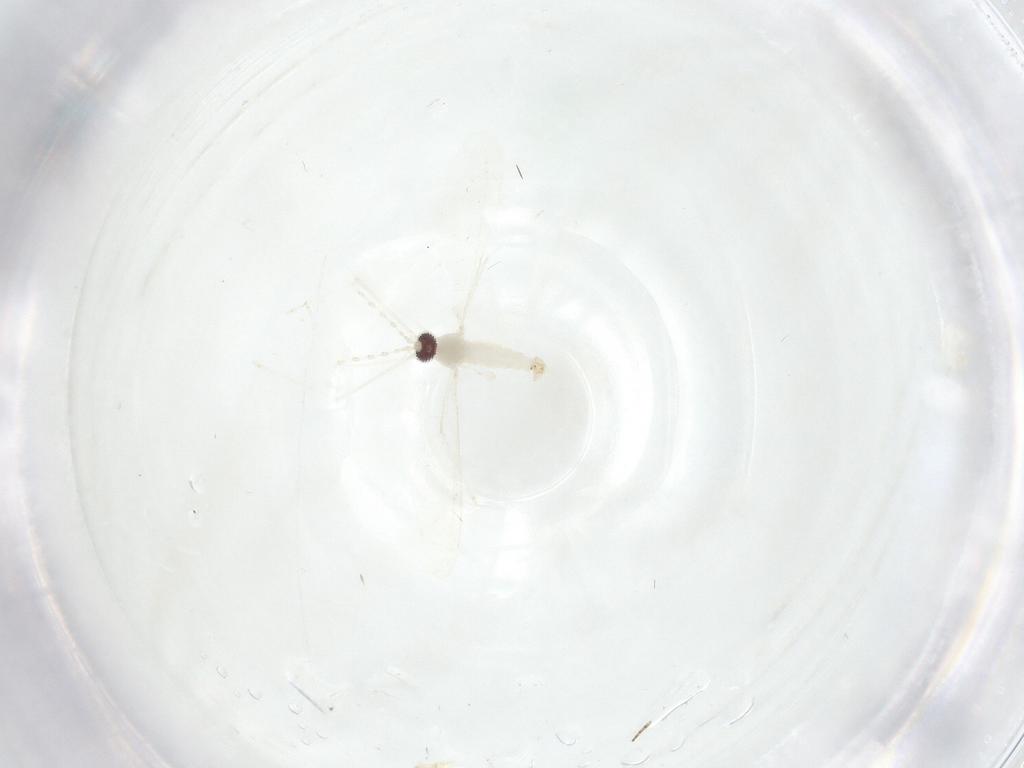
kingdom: Animalia
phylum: Arthropoda
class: Insecta
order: Diptera
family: Cecidomyiidae
